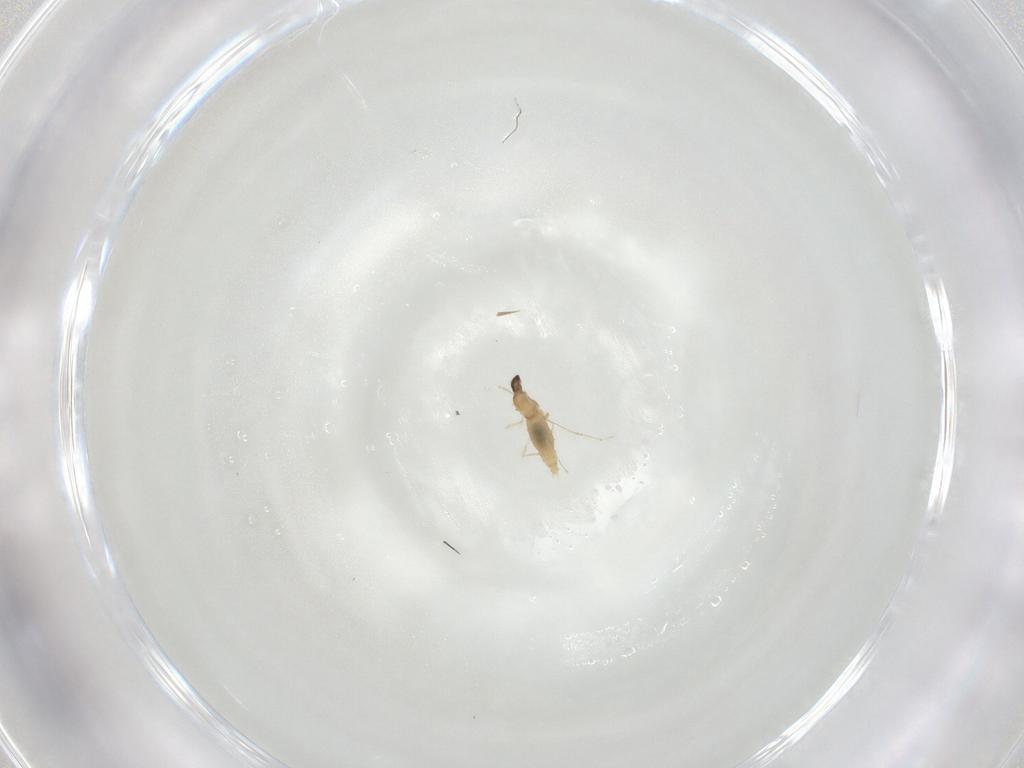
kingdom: Animalia
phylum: Arthropoda
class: Insecta
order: Diptera
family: Cecidomyiidae
